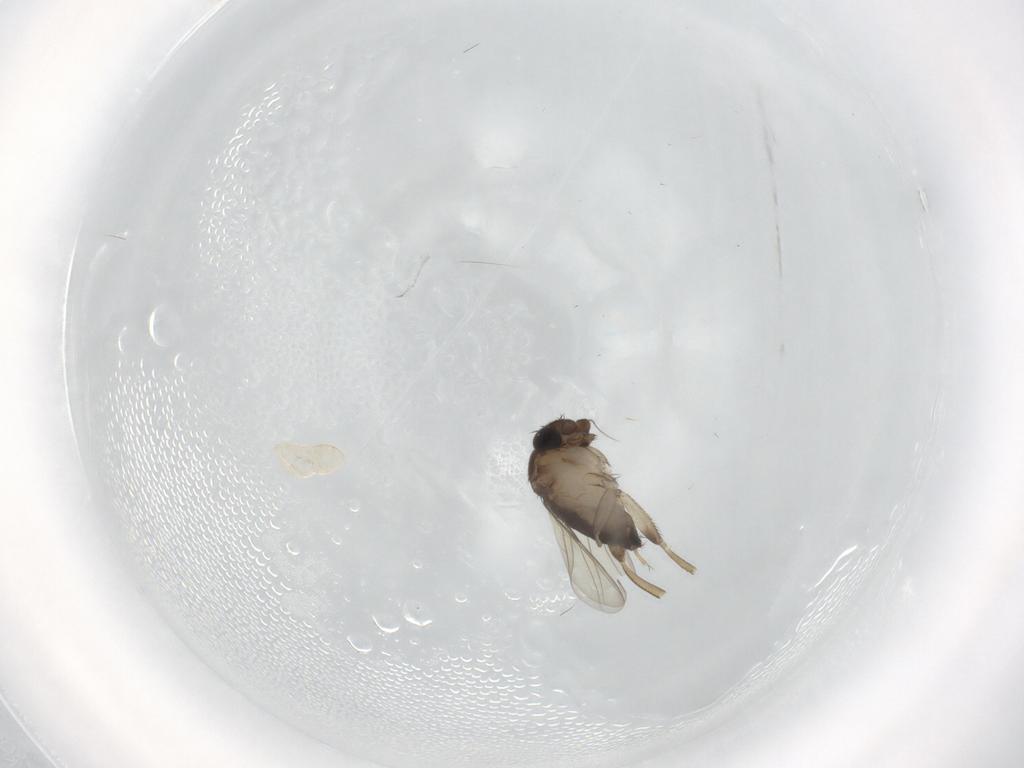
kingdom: Animalia
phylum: Arthropoda
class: Insecta
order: Diptera
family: Phoridae
